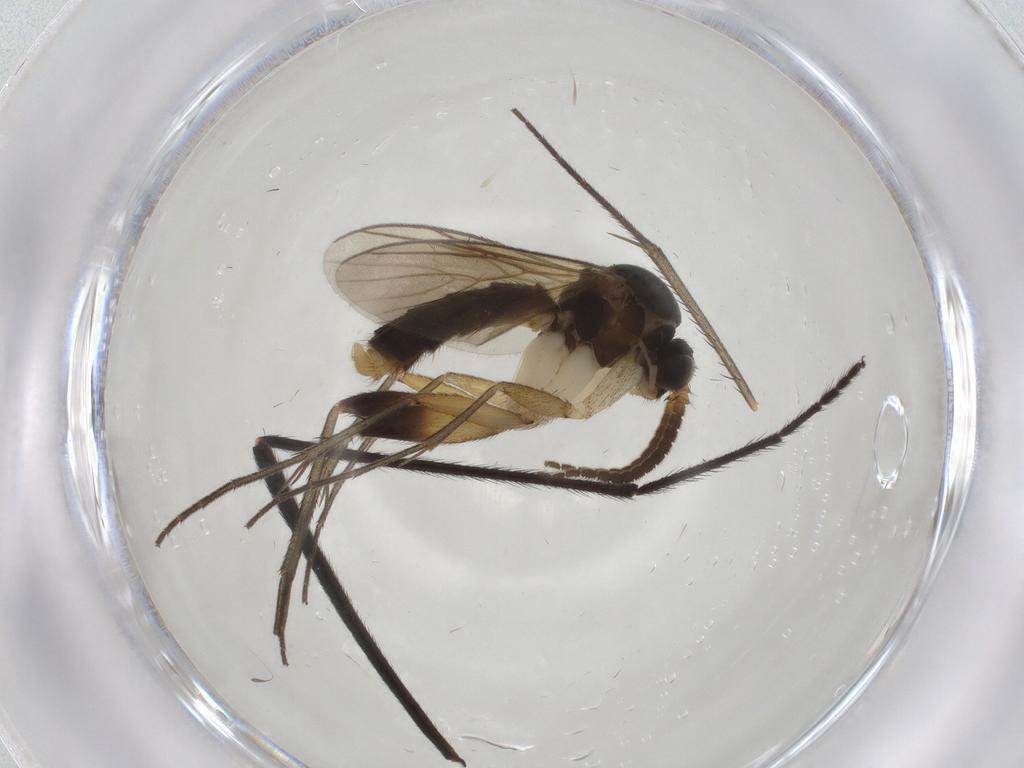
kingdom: Animalia
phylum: Arthropoda
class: Insecta
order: Diptera
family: Mycetophilidae
